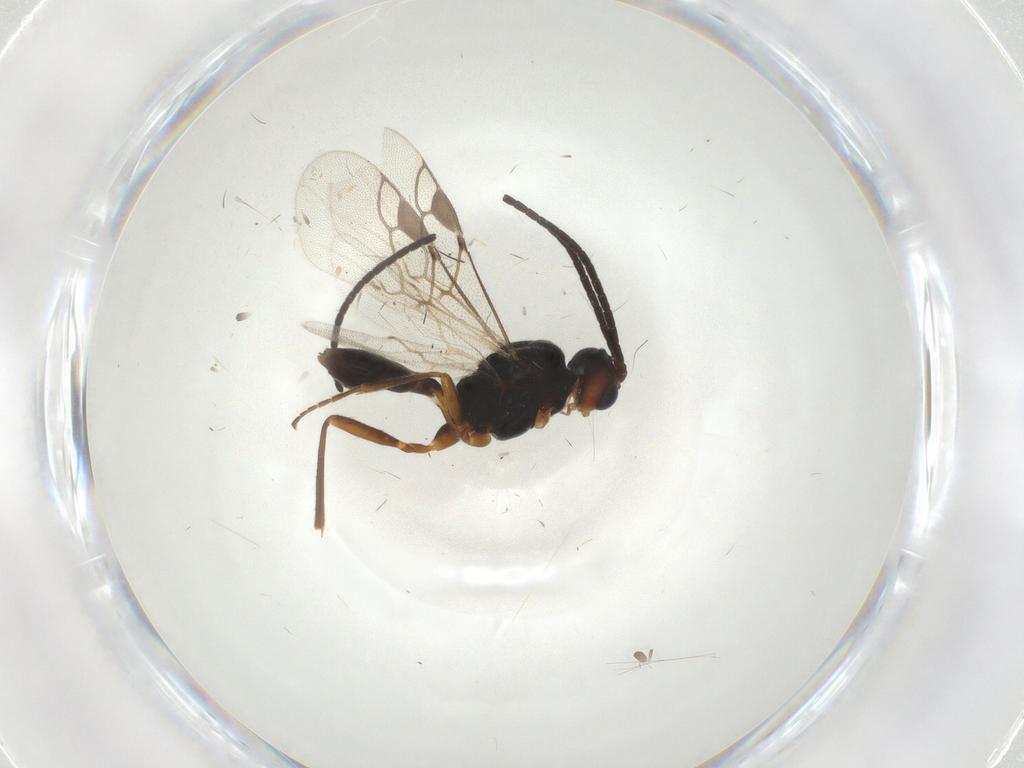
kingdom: Animalia
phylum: Arthropoda
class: Insecta
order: Hymenoptera
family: Braconidae
